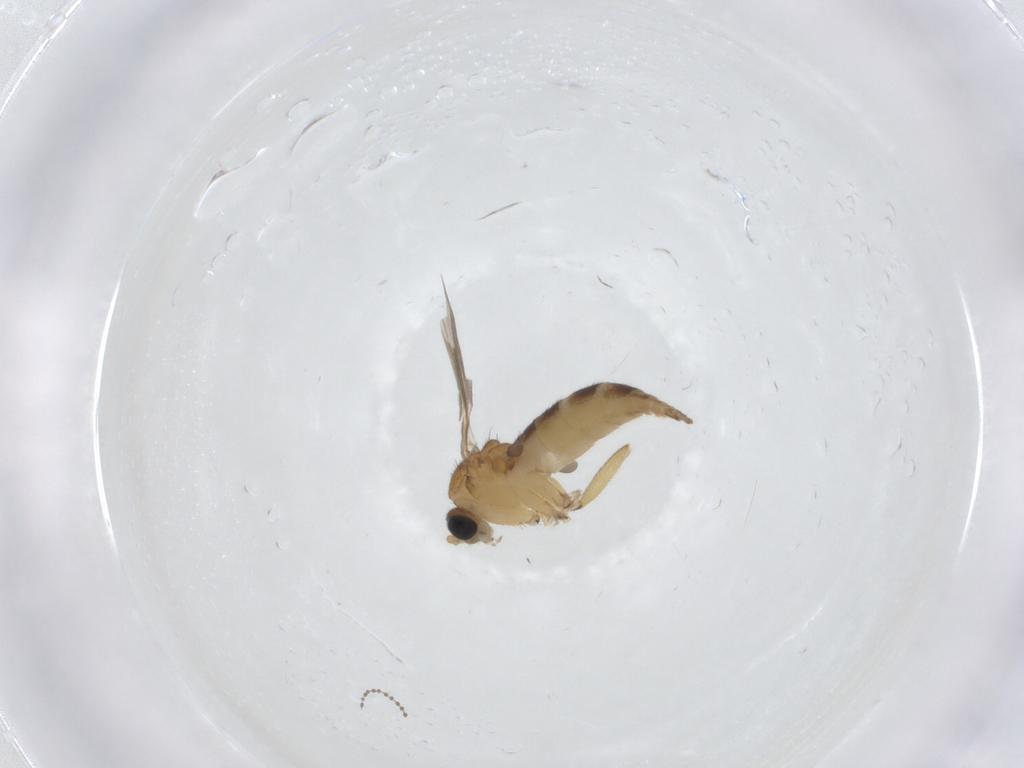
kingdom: Animalia
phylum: Arthropoda
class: Insecta
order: Diptera
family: Cecidomyiidae
